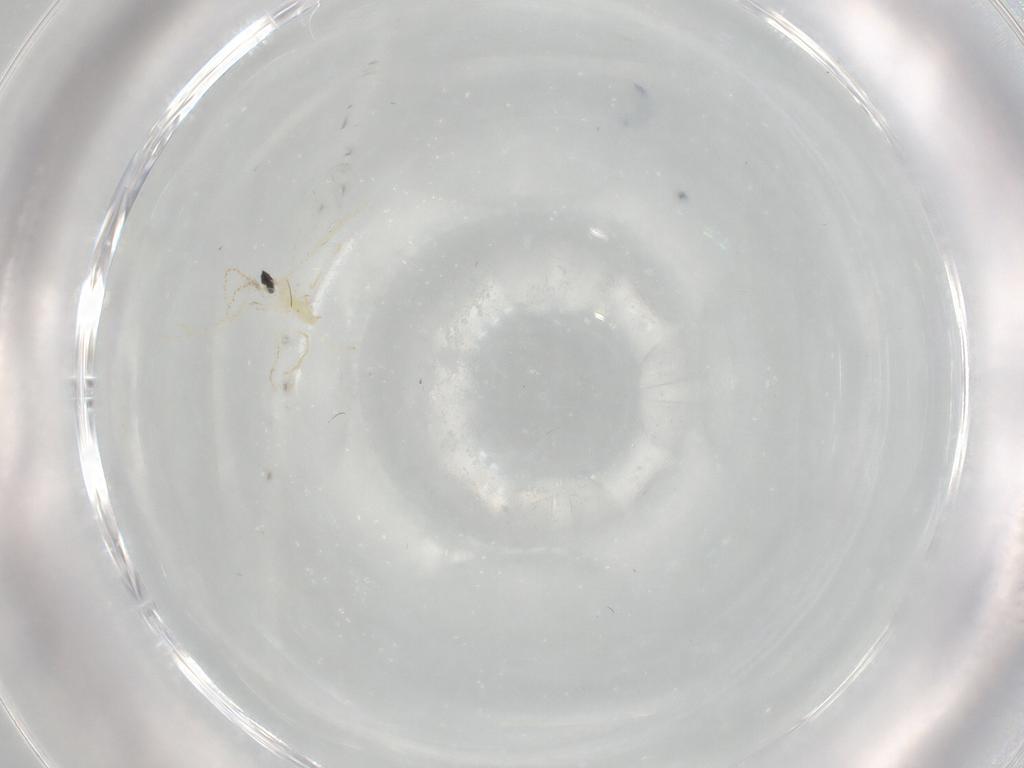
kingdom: Animalia
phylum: Arthropoda
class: Insecta
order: Diptera
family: Cecidomyiidae
